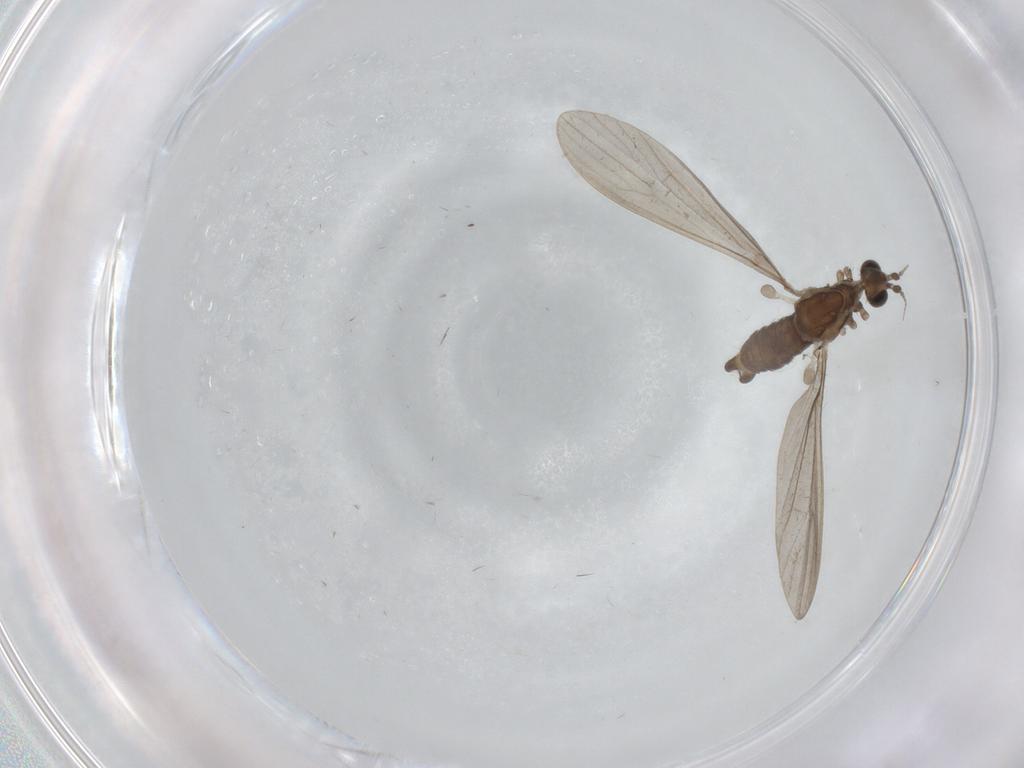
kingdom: Animalia
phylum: Arthropoda
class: Insecta
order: Diptera
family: Limoniidae
